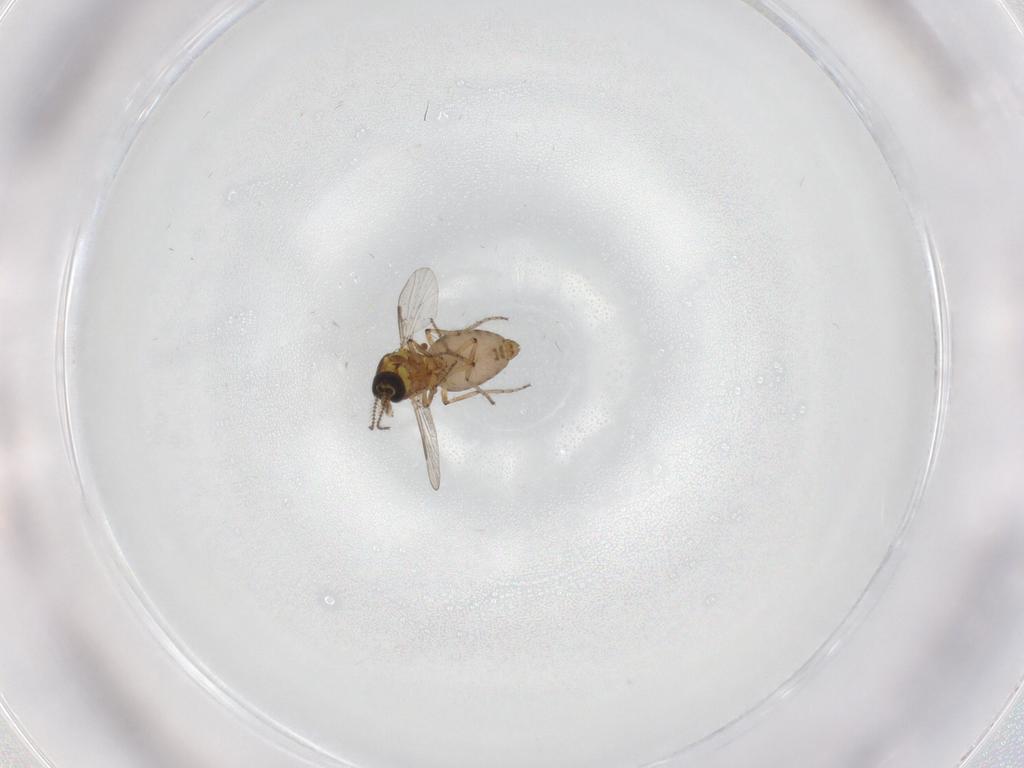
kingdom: Animalia
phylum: Arthropoda
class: Insecta
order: Diptera
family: Ceratopogonidae
